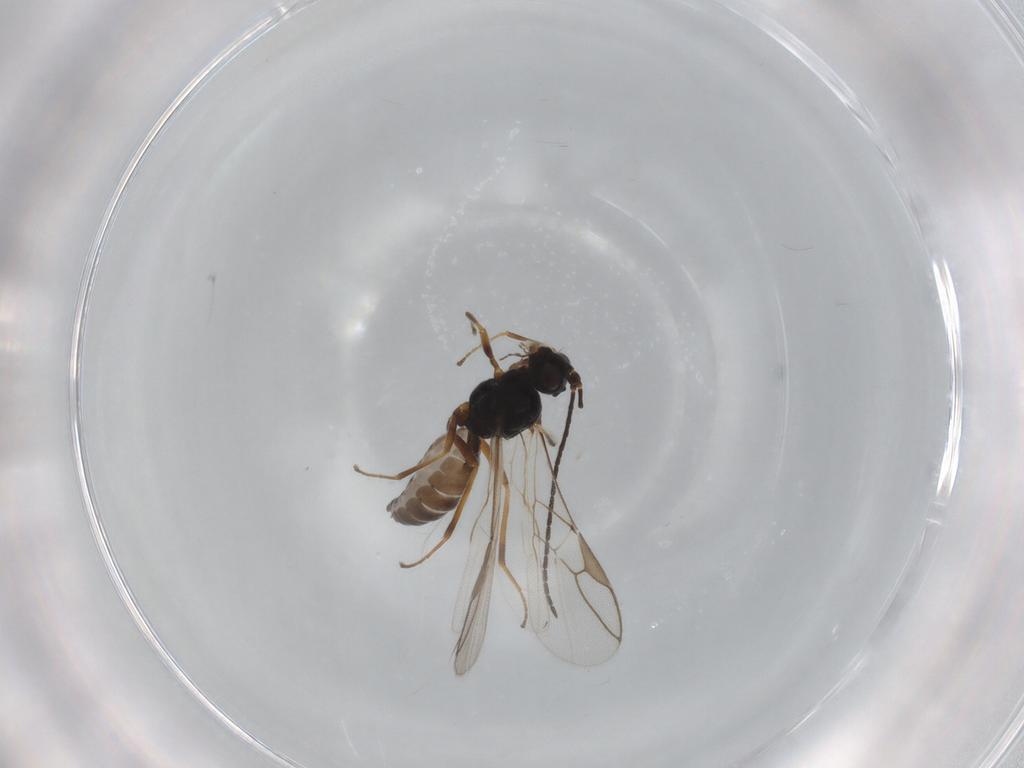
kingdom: Animalia
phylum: Arthropoda
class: Insecta
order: Hymenoptera
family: Braconidae
